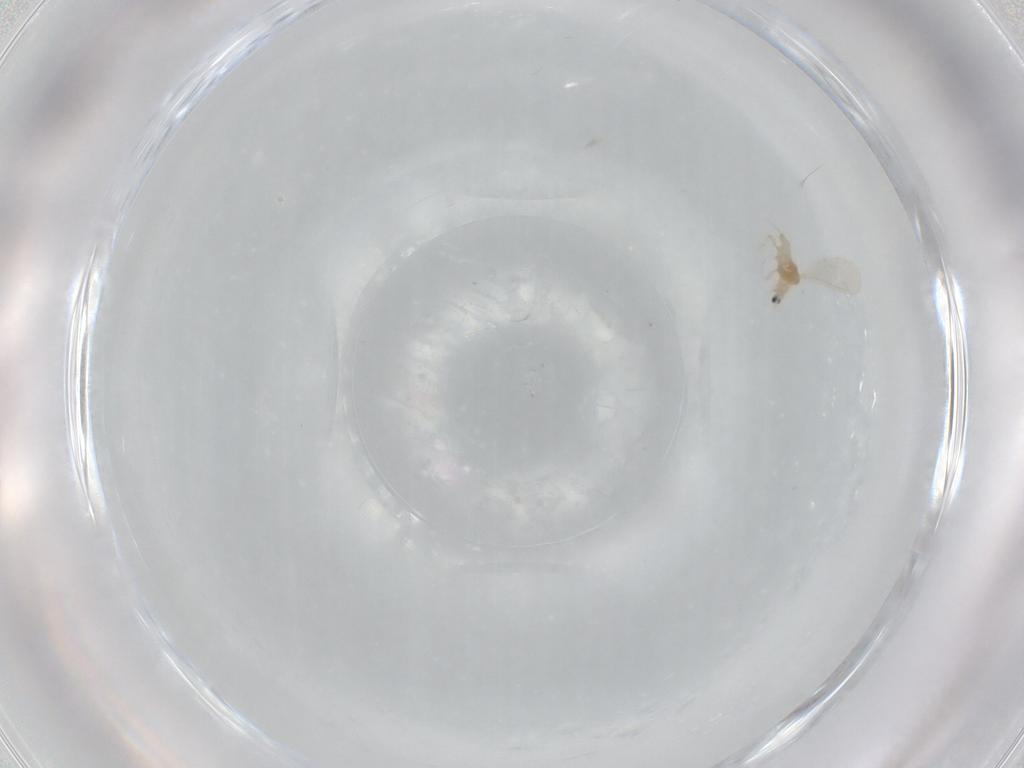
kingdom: Animalia
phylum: Arthropoda
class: Insecta
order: Hemiptera
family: Diaspididae
